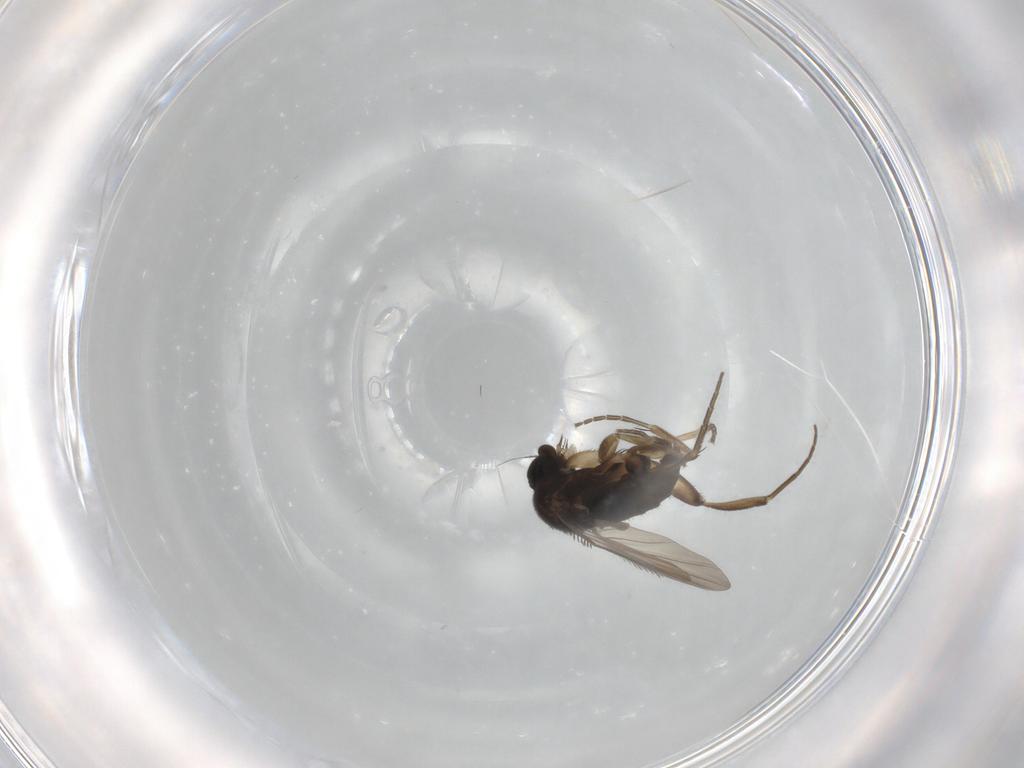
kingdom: Animalia
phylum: Arthropoda
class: Insecta
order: Diptera
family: Phoridae
